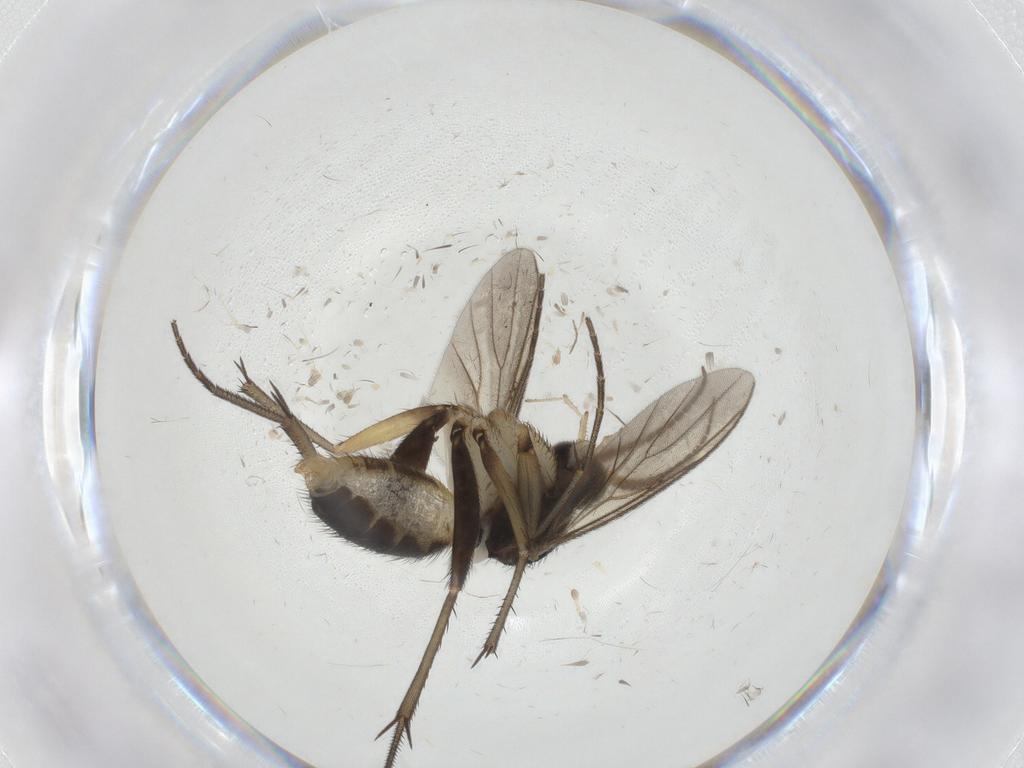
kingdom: Animalia
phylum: Arthropoda
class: Insecta
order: Diptera
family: Mycetophilidae
